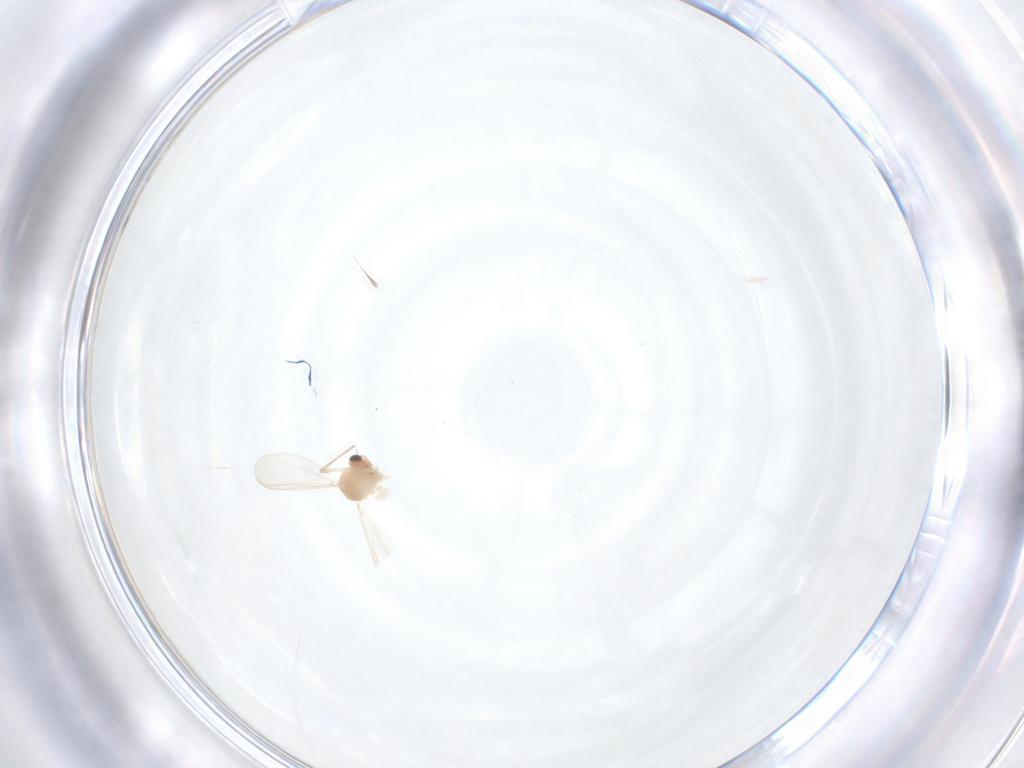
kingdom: Animalia
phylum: Arthropoda
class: Insecta
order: Diptera
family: Chironomidae
